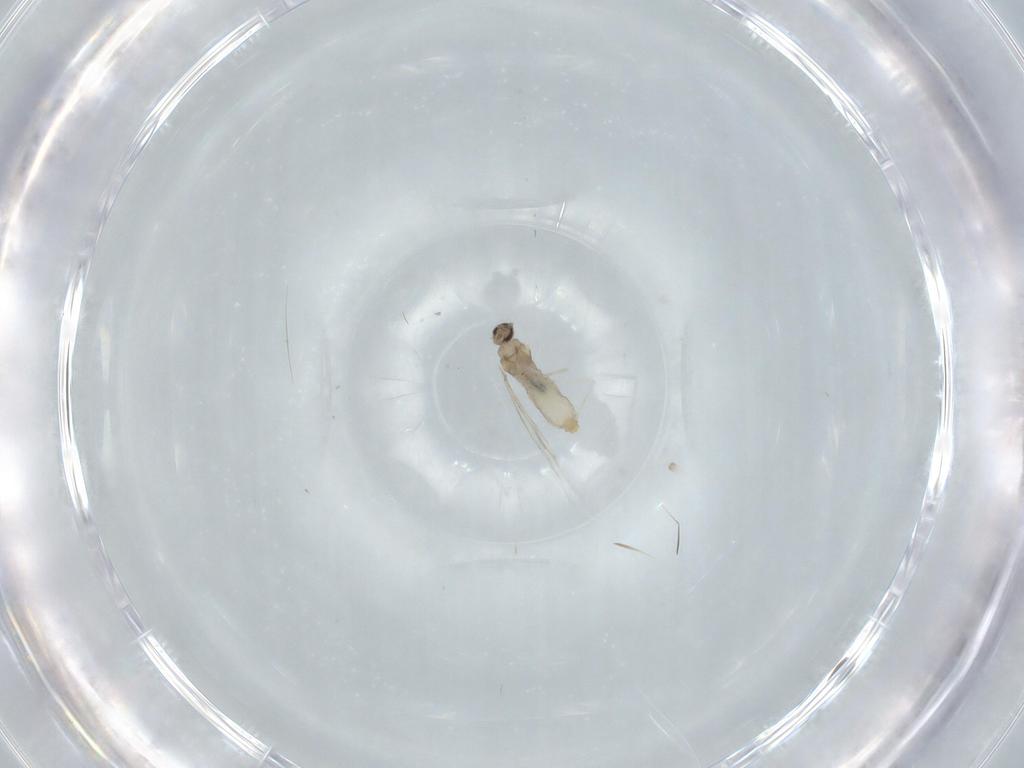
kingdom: Animalia
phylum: Arthropoda
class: Insecta
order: Diptera
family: Cecidomyiidae
